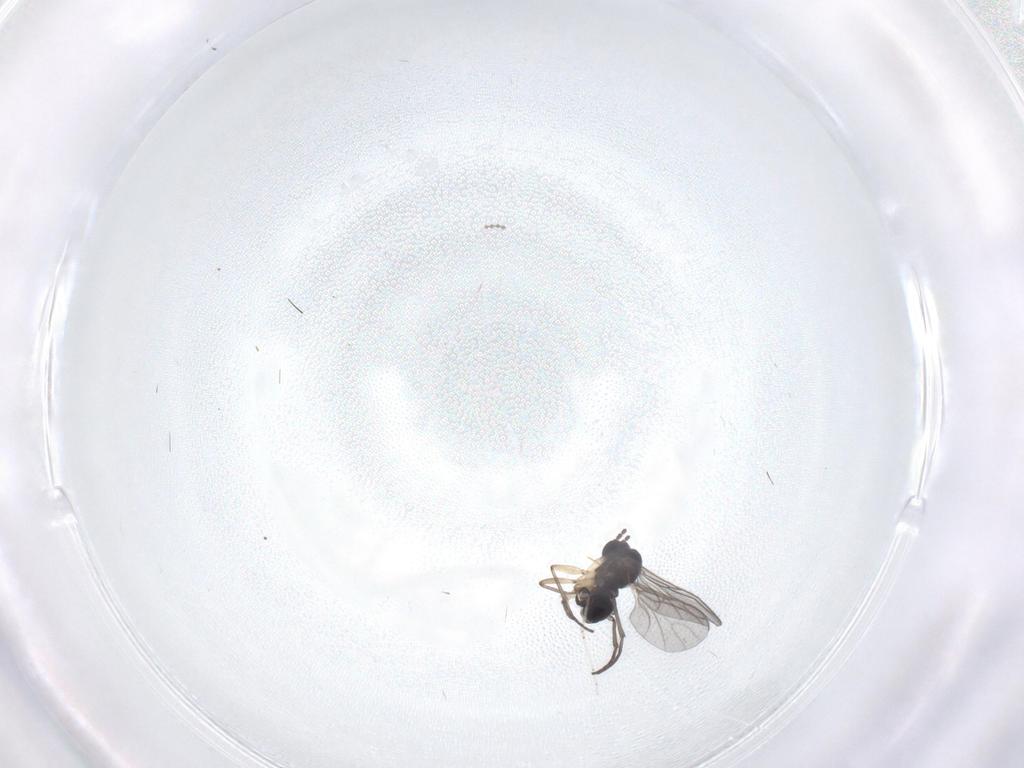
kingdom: Animalia
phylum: Arthropoda
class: Insecta
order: Diptera
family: Sciaridae
